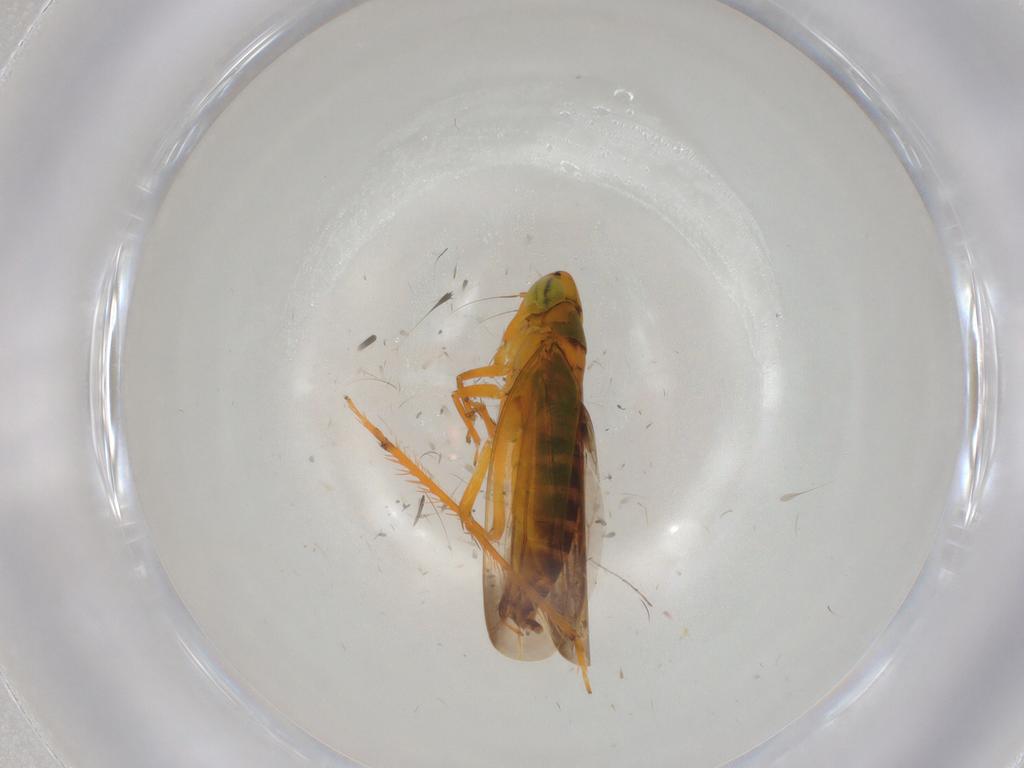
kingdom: Animalia
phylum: Arthropoda
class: Insecta
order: Hemiptera
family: Cicadellidae
